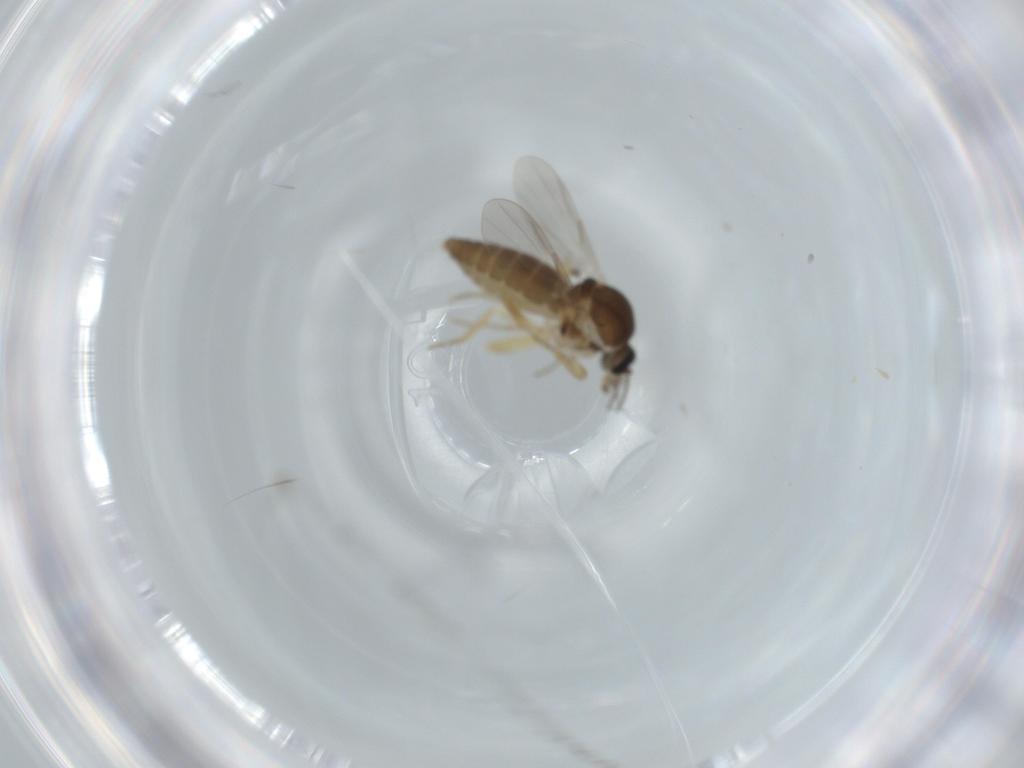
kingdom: Animalia
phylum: Arthropoda
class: Insecta
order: Diptera
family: Ceratopogonidae
